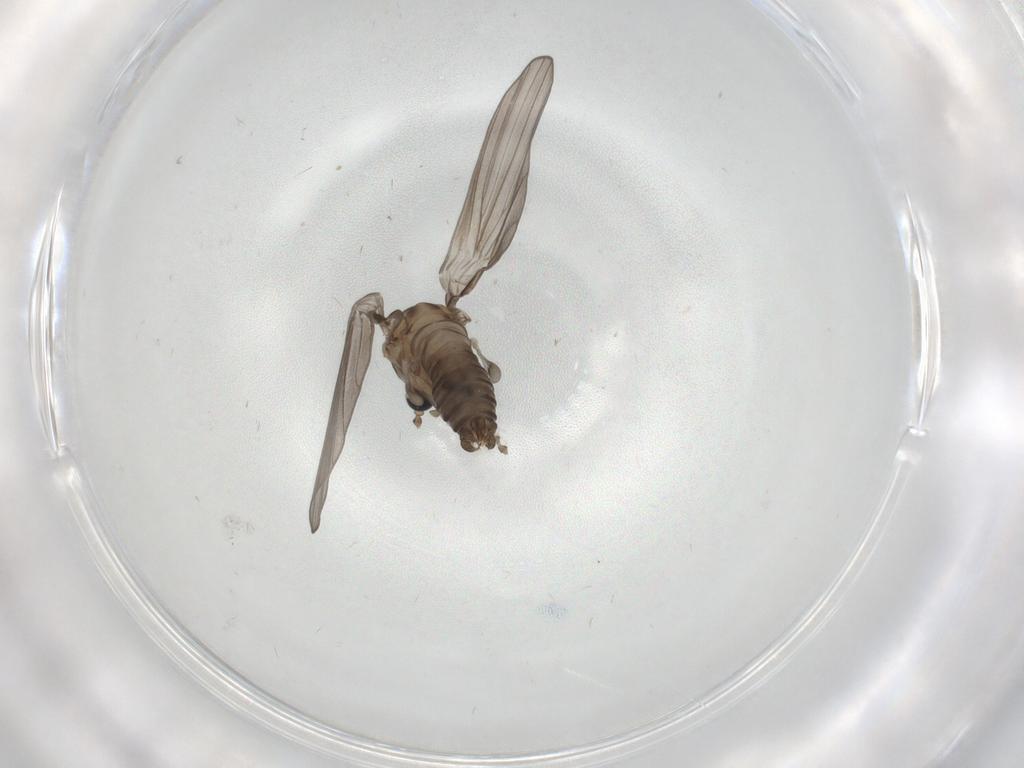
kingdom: Animalia
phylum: Arthropoda
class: Insecta
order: Diptera
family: Psychodidae
